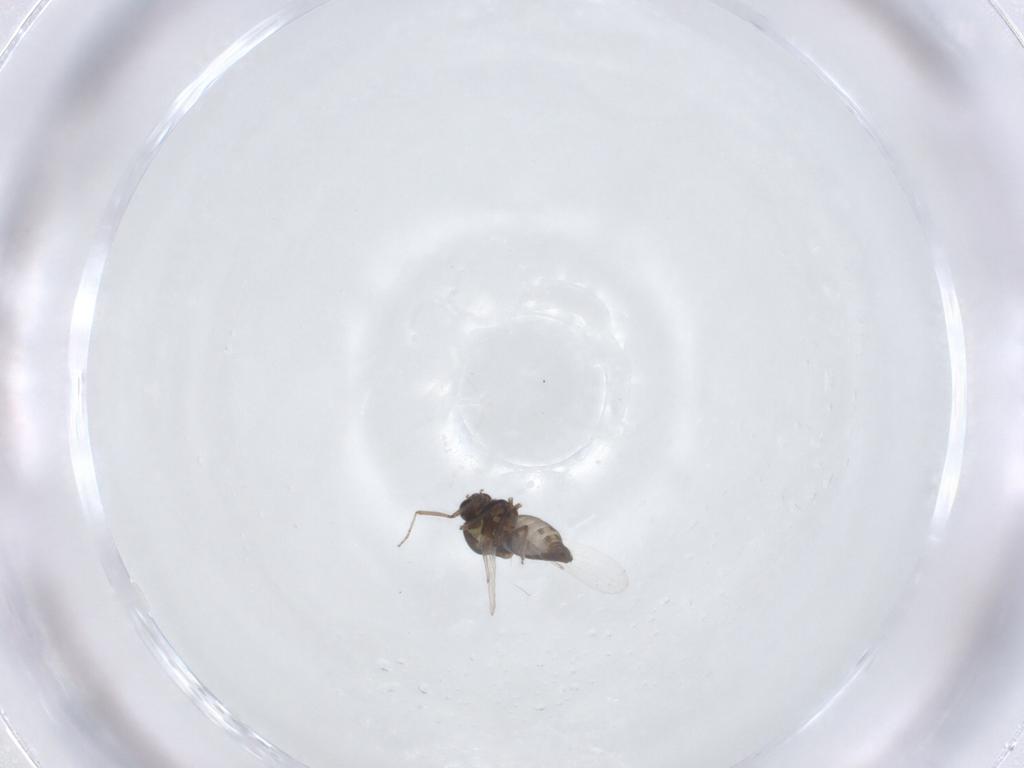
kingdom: Animalia
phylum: Arthropoda
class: Insecta
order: Diptera
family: Ceratopogonidae
